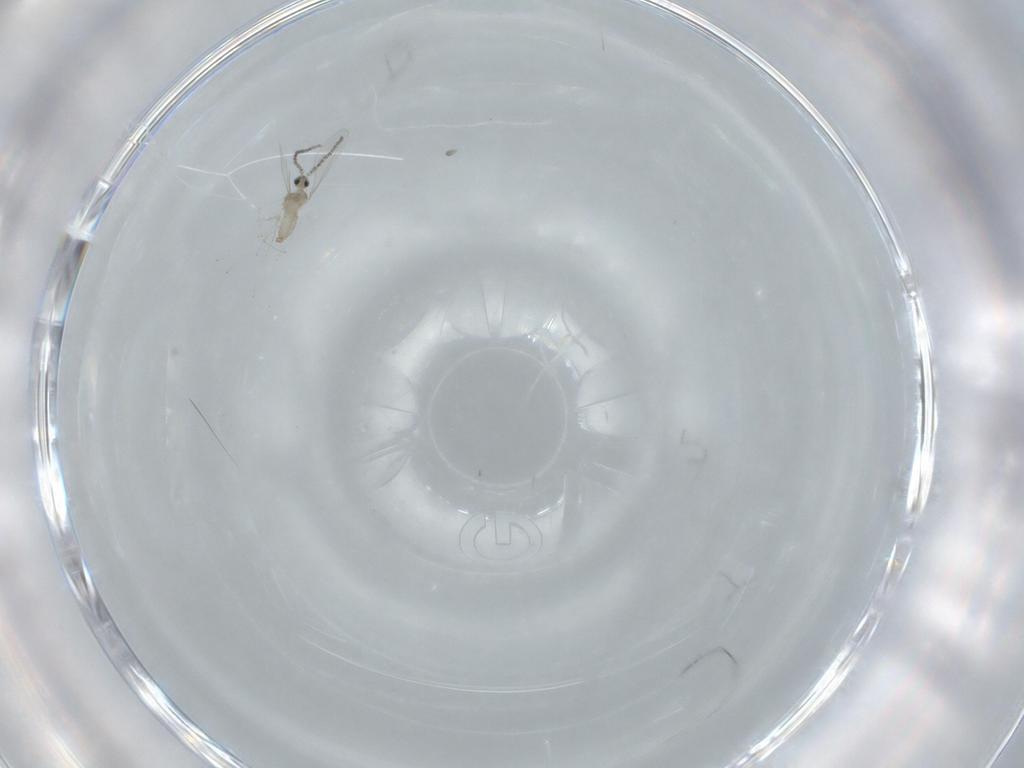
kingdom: Animalia
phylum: Arthropoda
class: Insecta
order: Diptera
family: Cecidomyiidae
